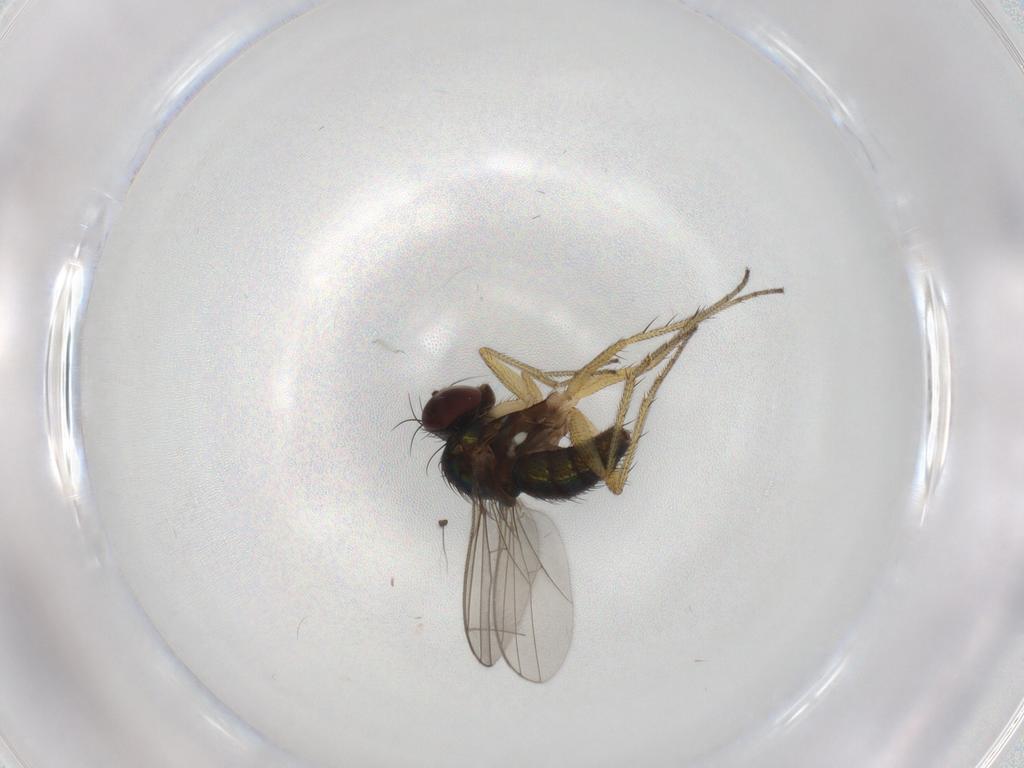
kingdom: Animalia
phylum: Arthropoda
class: Insecta
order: Diptera
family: Dolichopodidae
